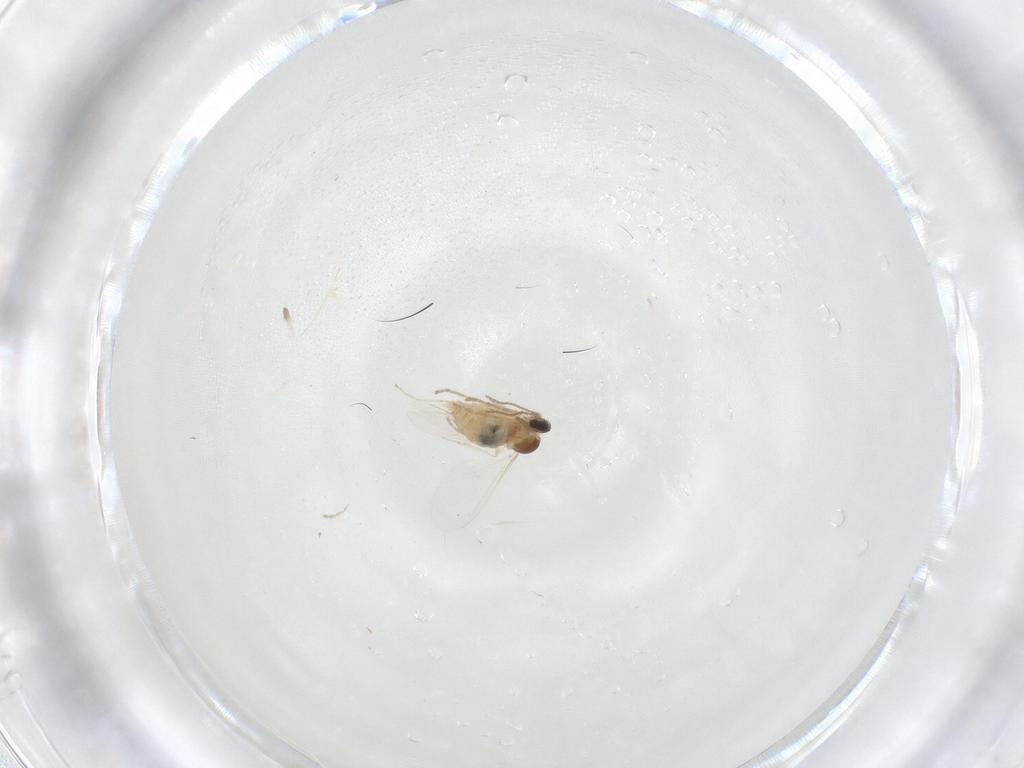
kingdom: Animalia
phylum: Arthropoda
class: Insecta
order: Diptera
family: Cecidomyiidae
